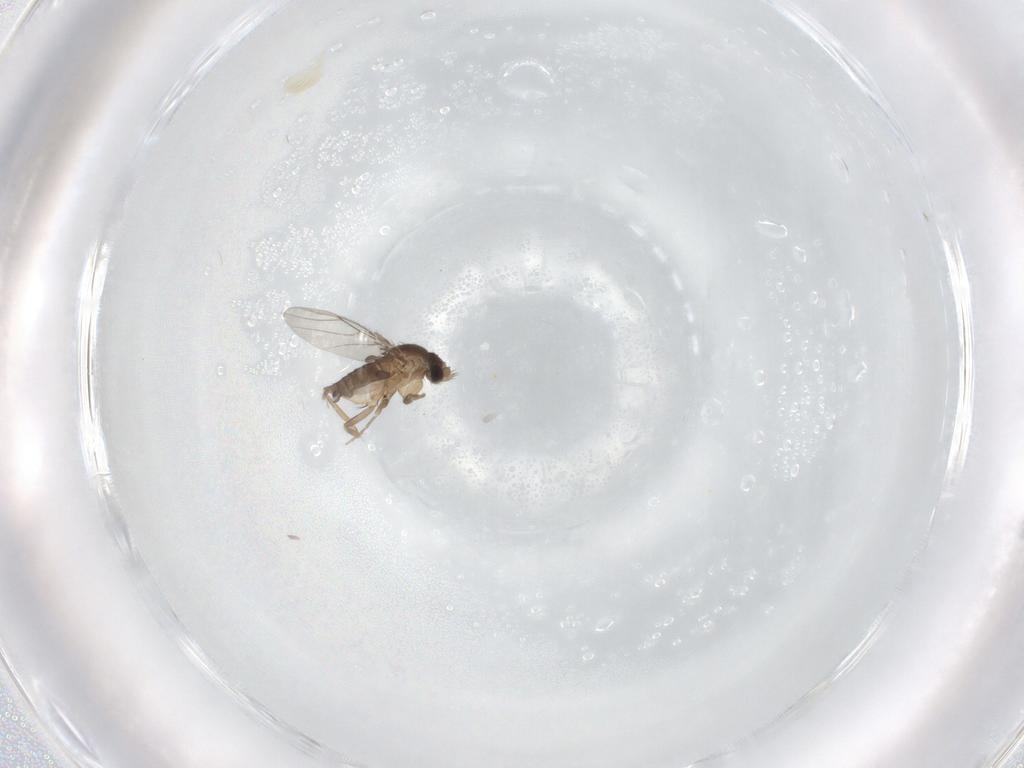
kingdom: Animalia
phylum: Arthropoda
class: Insecta
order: Diptera
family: Phoridae
